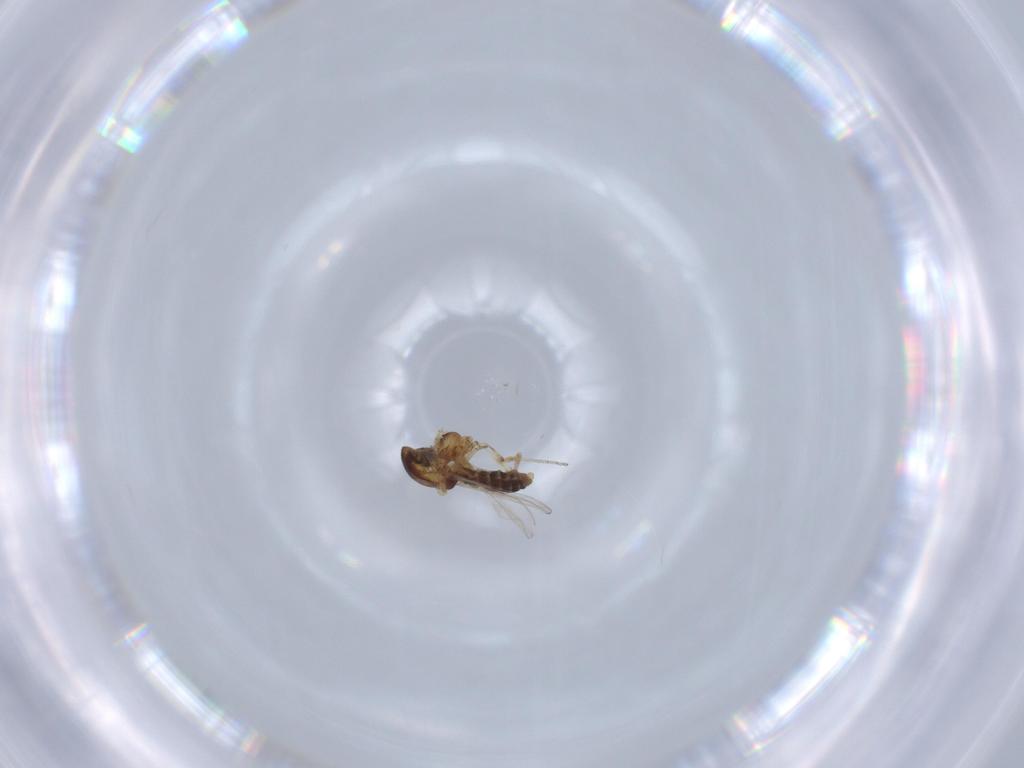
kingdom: Animalia
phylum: Arthropoda
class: Insecta
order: Diptera
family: Ceratopogonidae
